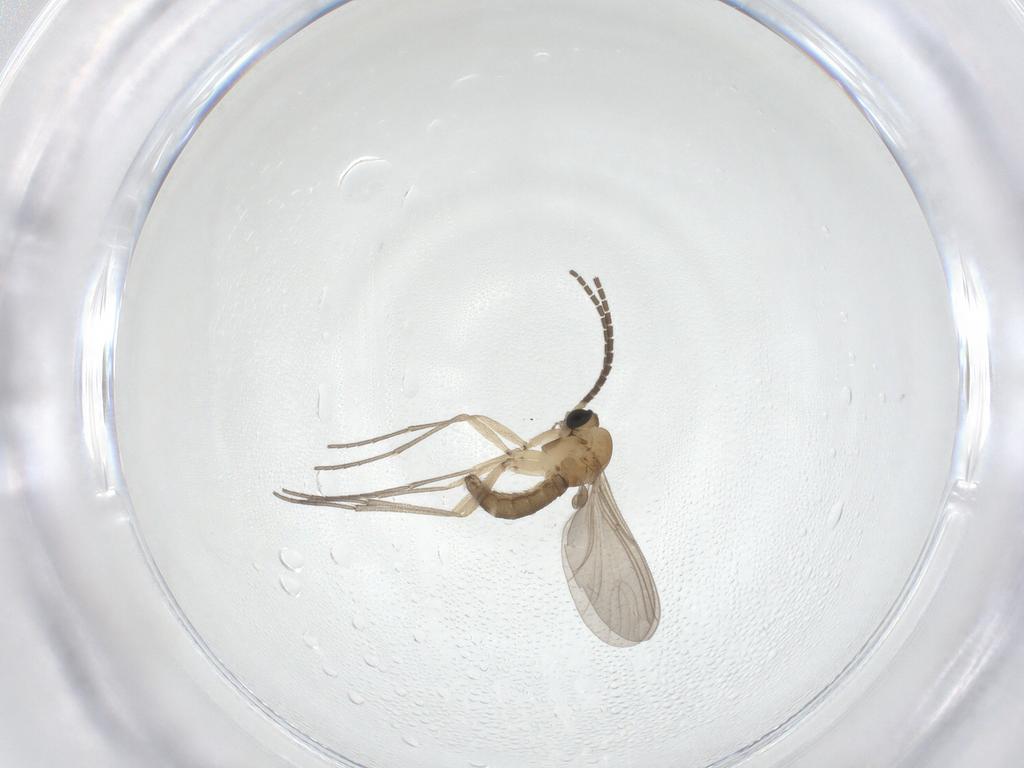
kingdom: Animalia
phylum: Arthropoda
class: Insecta
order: Diptera
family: Sciaridae
